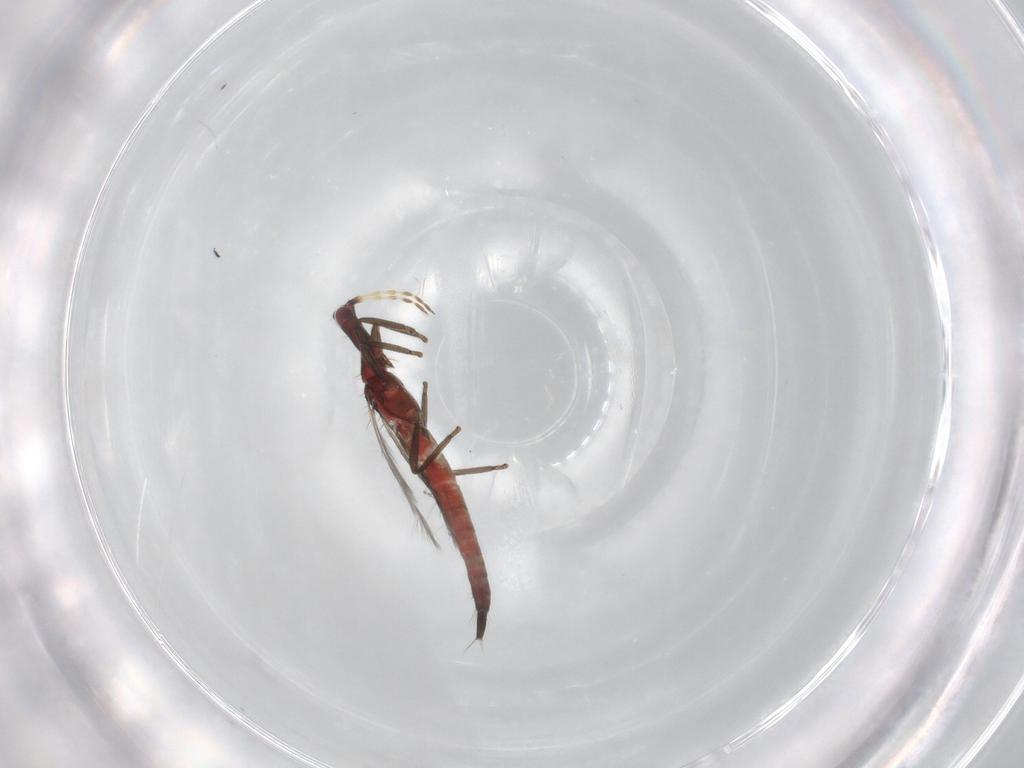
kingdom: Animalia
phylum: Arthropoda
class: Insecta
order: Thysanoptera
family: Phlaeothripidae
